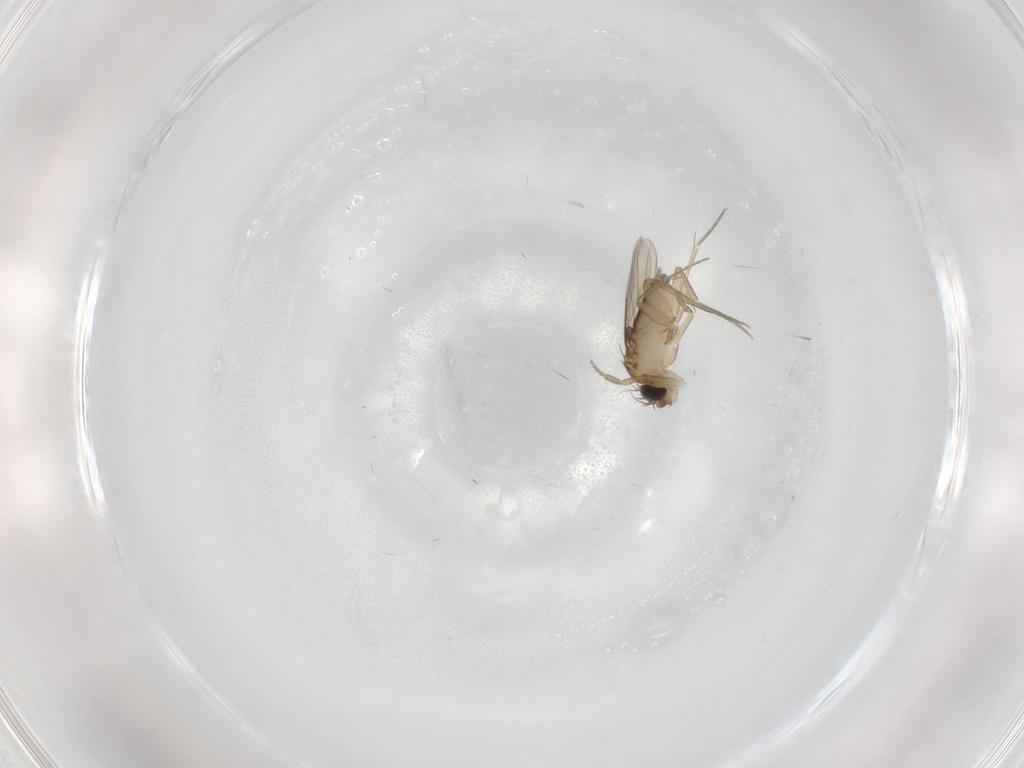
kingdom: Animalia
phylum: Arthropoda
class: Insecta
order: Diptera
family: Phoridae
